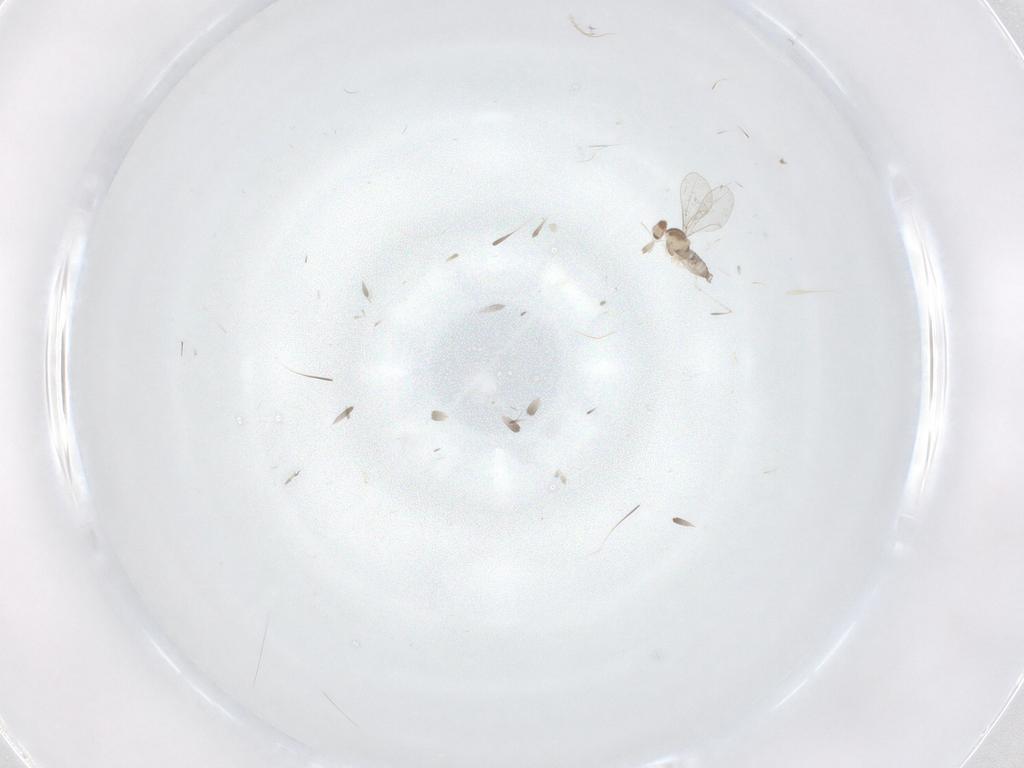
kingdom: Animalia
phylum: Arthropoda
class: Insecta
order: Diptera
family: Cecidomyiidae
